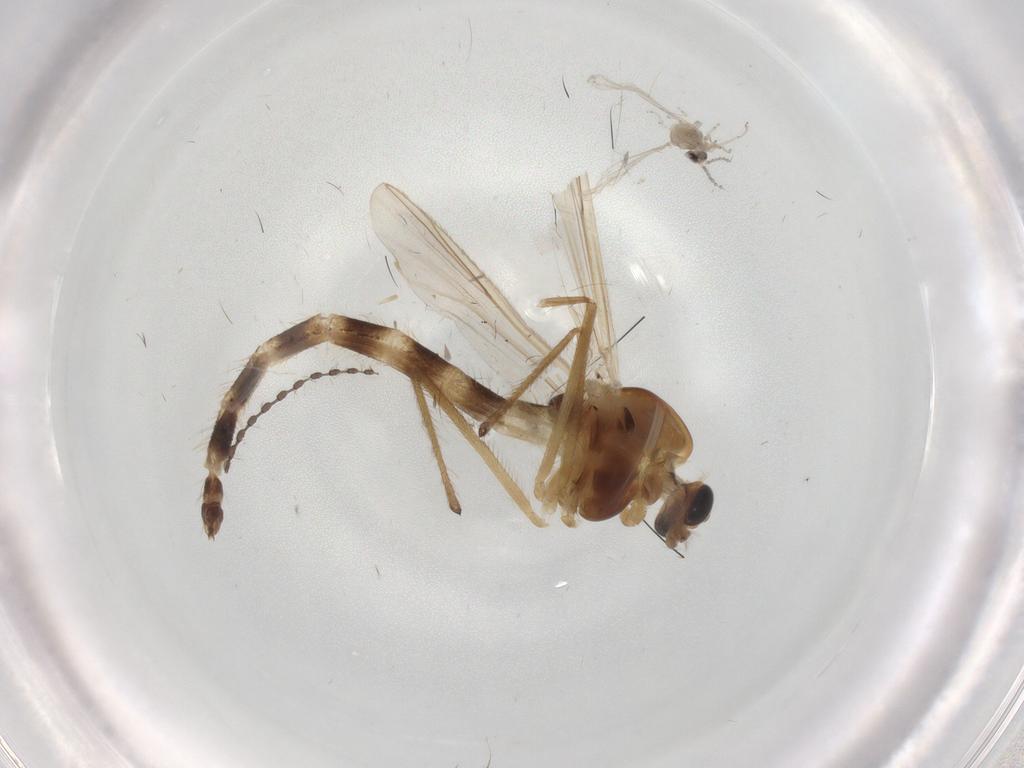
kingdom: Animalia
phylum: Arthropoda
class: Insecta
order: Diptera
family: Chironomidae
